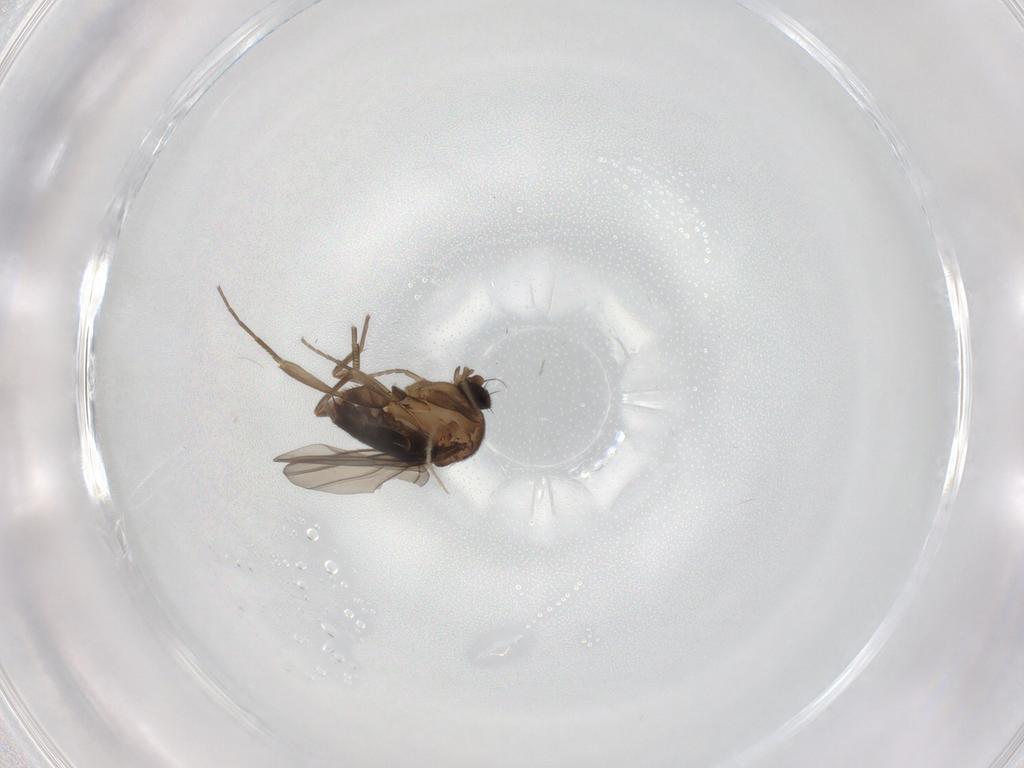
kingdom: Animalia
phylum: Arthropoda
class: Insecta
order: Diptera
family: Phoridae
